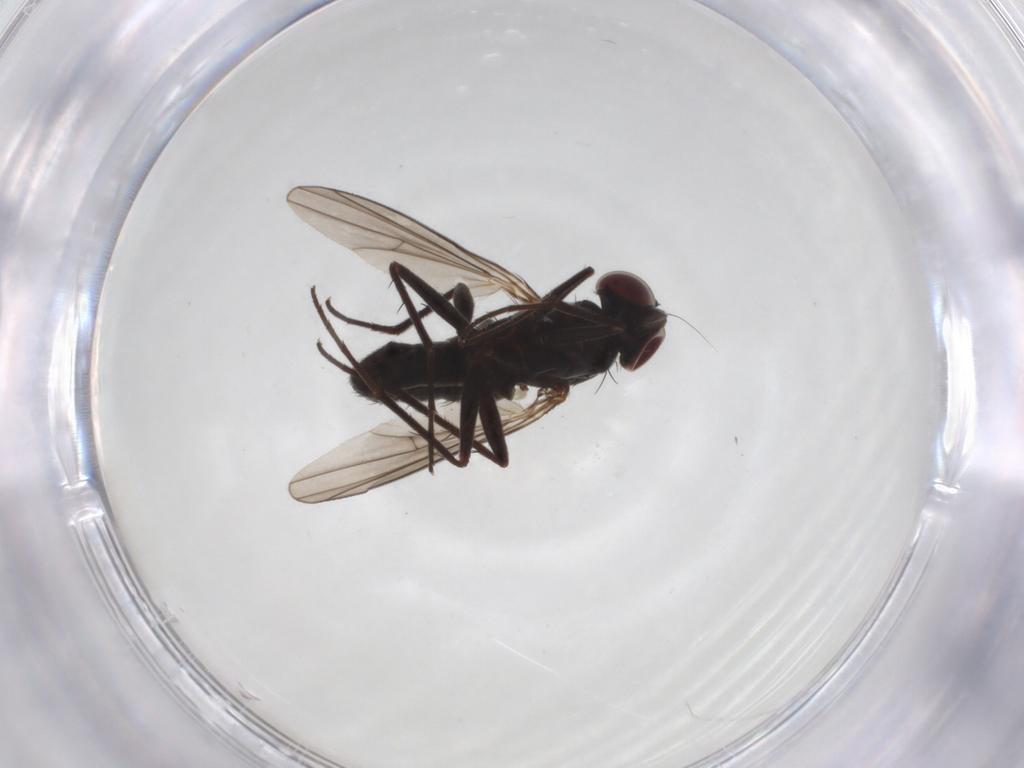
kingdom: Animalia
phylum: Arthropoda
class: Insecta
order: Diptera
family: Dolichopodidae
